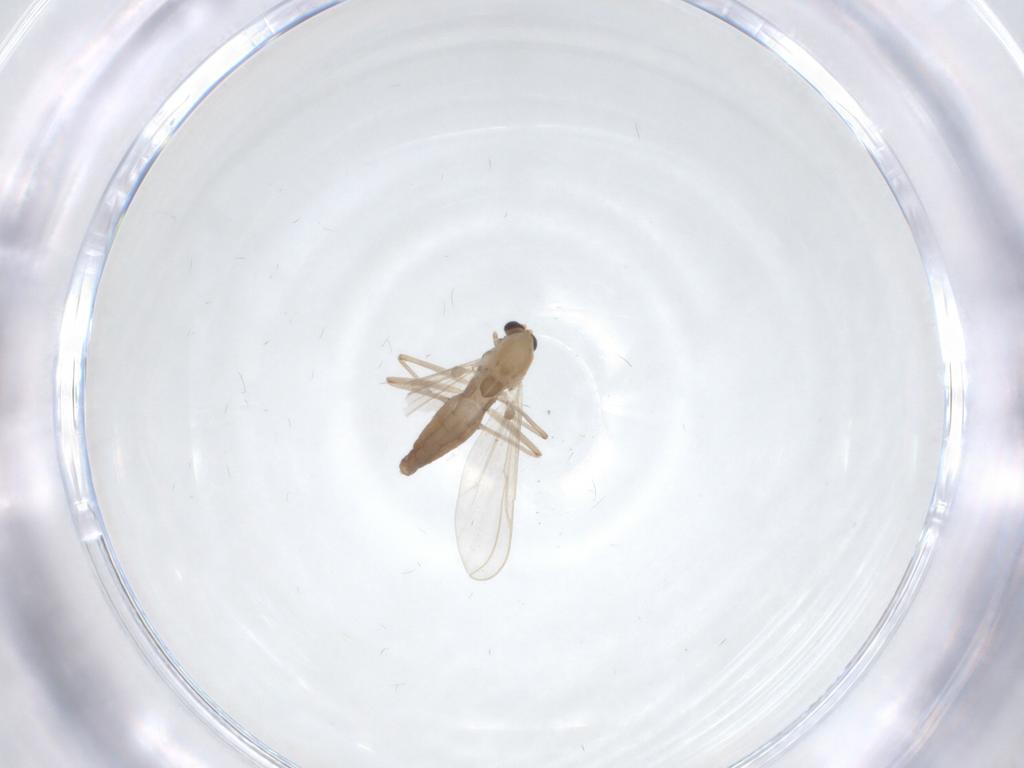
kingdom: Animalia
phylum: Arthropoda
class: Insecta
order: Diptera
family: Chironomidae
